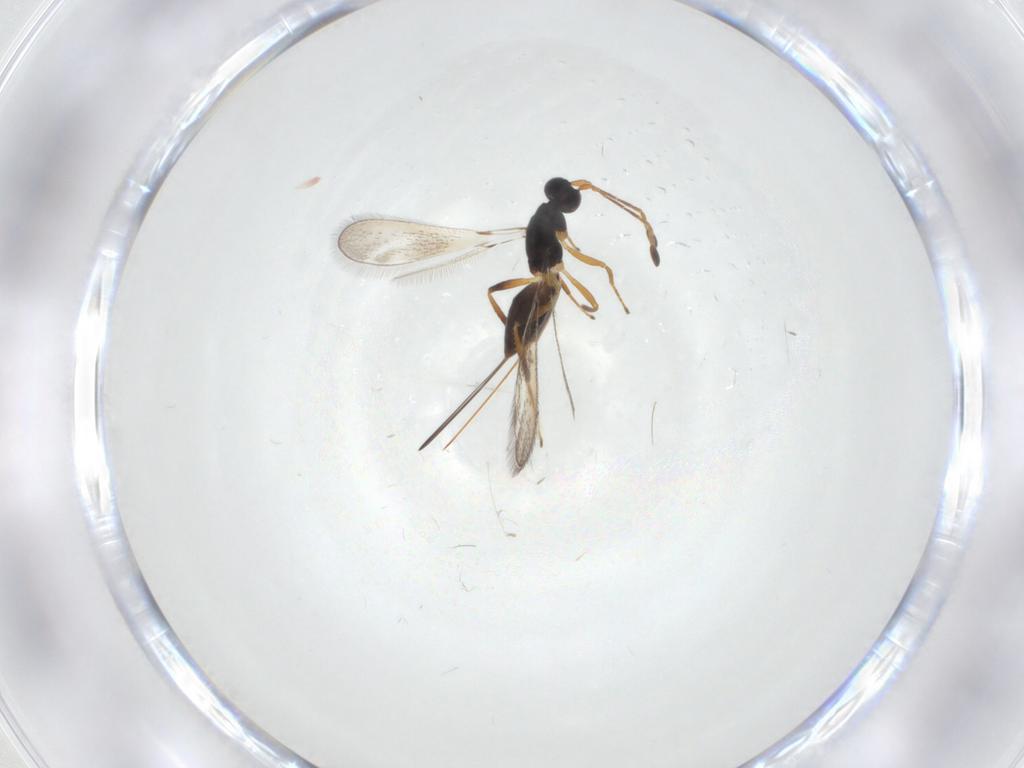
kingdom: Animalia
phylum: Arthropoda
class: Insecta
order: Hymenoptera
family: Mymaridae
